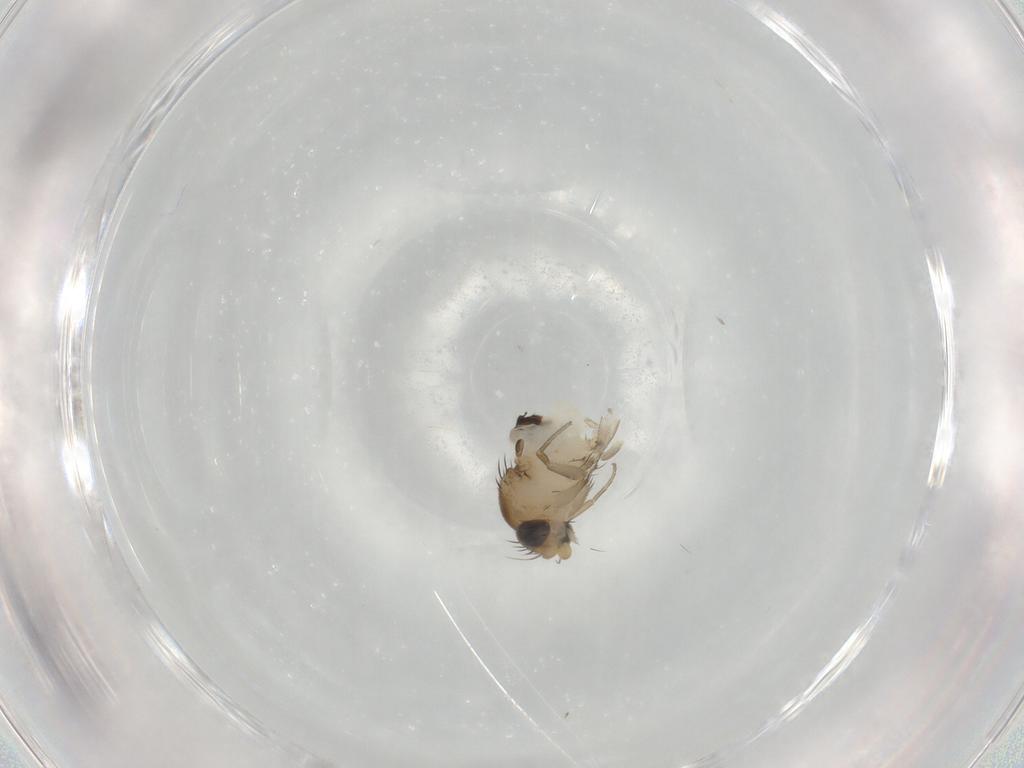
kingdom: Animalia
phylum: Arthropoda
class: Insecta
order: Diptera
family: Phoridae
